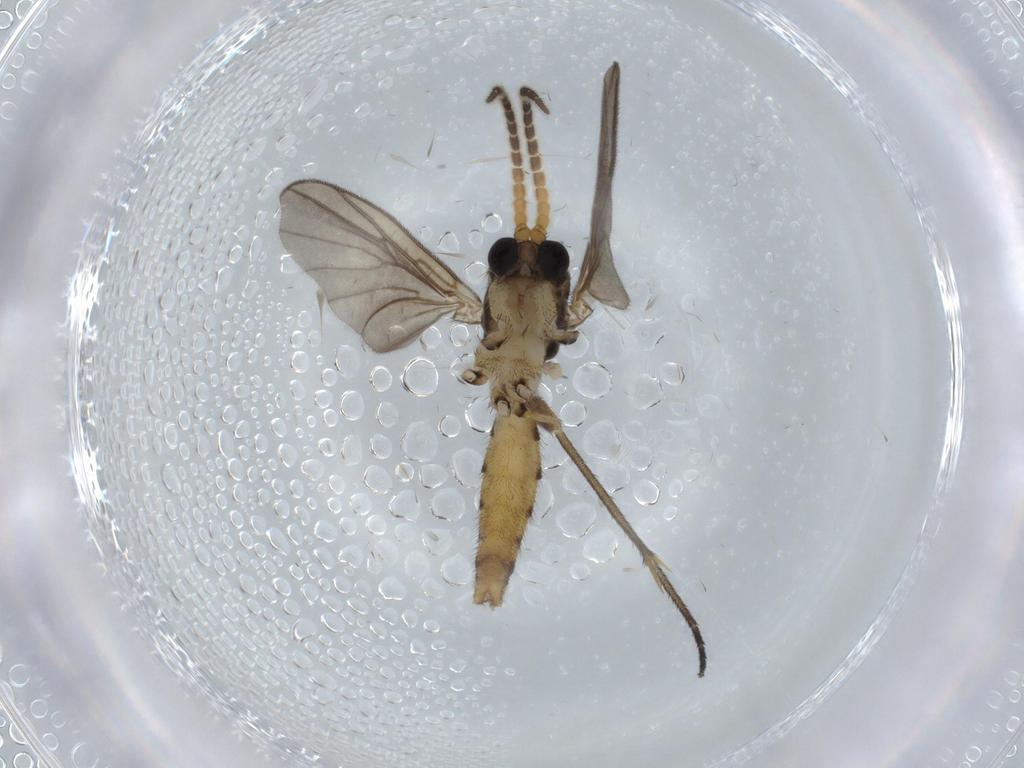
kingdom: Animalia
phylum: Arthropoda
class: Insecta
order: Diptera
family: Phoridae
